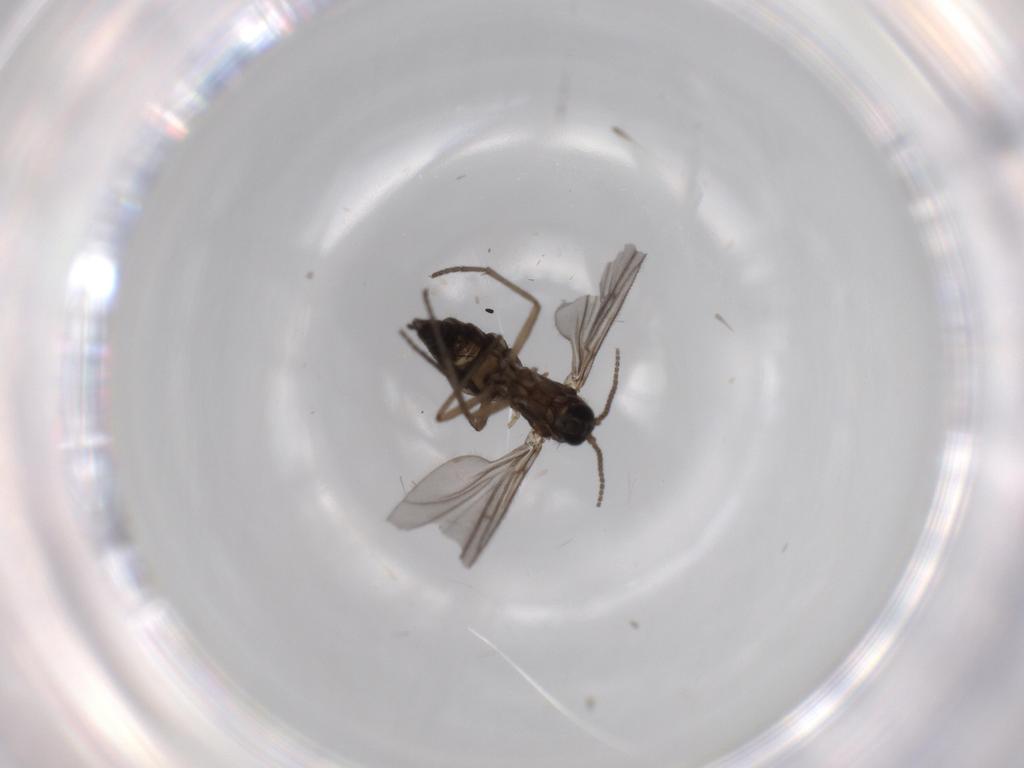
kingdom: Animalia
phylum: Arthropoda
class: Insecta
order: Diptera
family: Sciaridae
